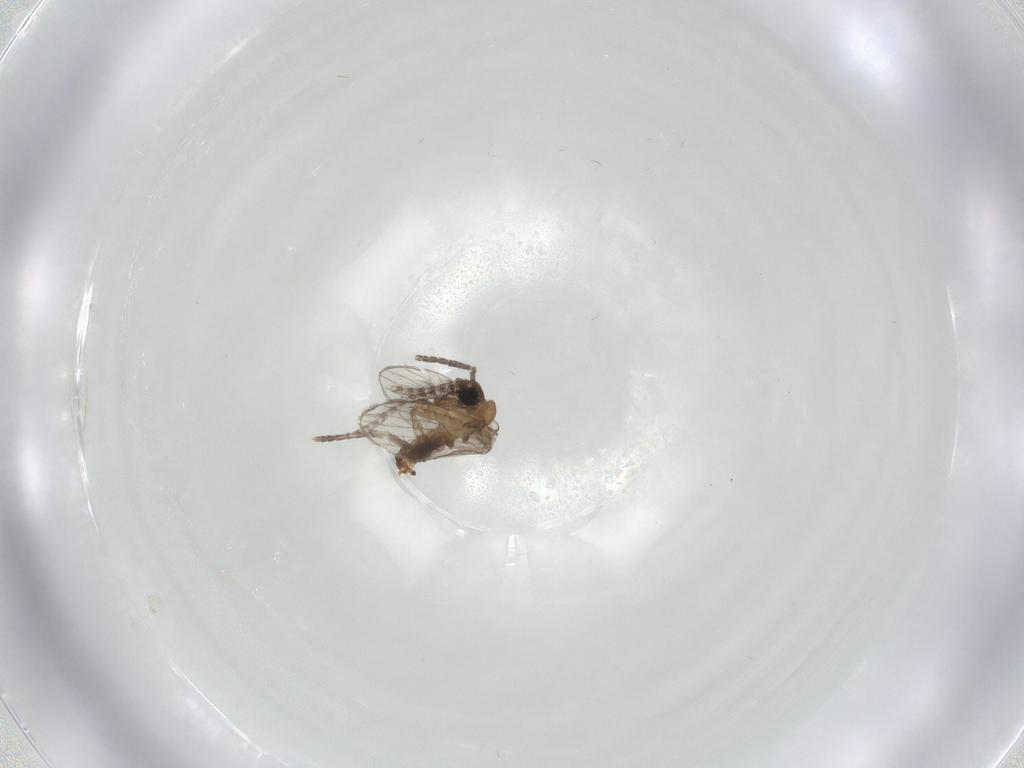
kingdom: Animalia
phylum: Arthropoda
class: Insecta
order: Diptera
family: Cecidomyiidae
